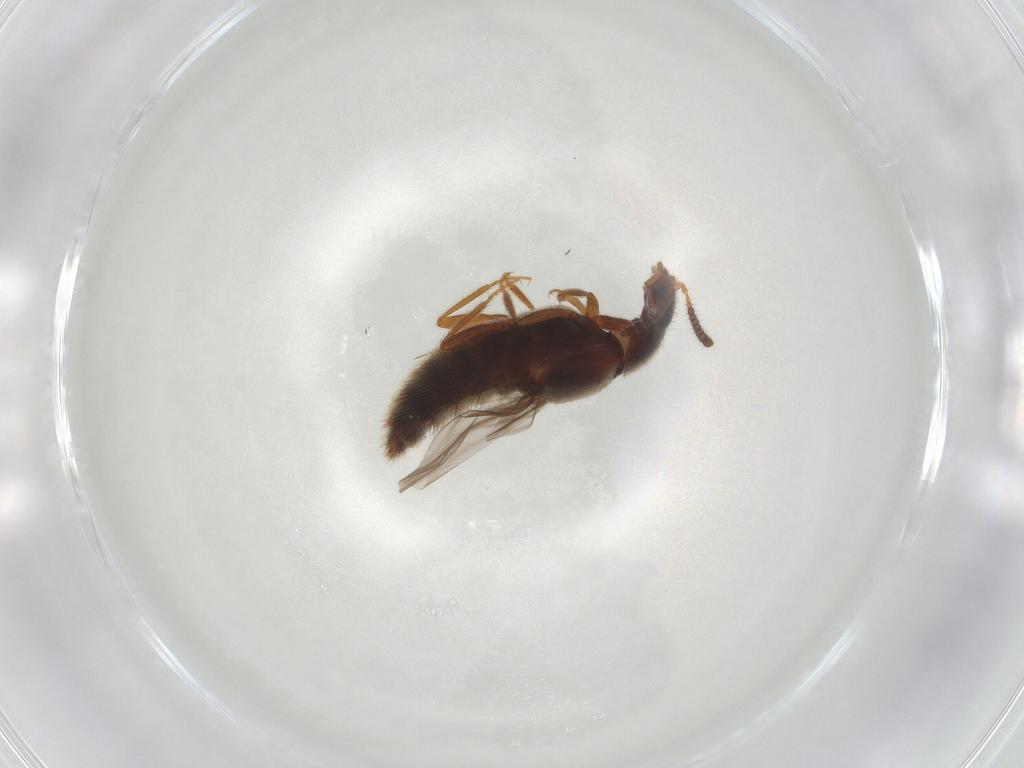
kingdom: Animalia
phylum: Arthropoda
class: Insecta
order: Coleoptera
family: Staphylinidae
